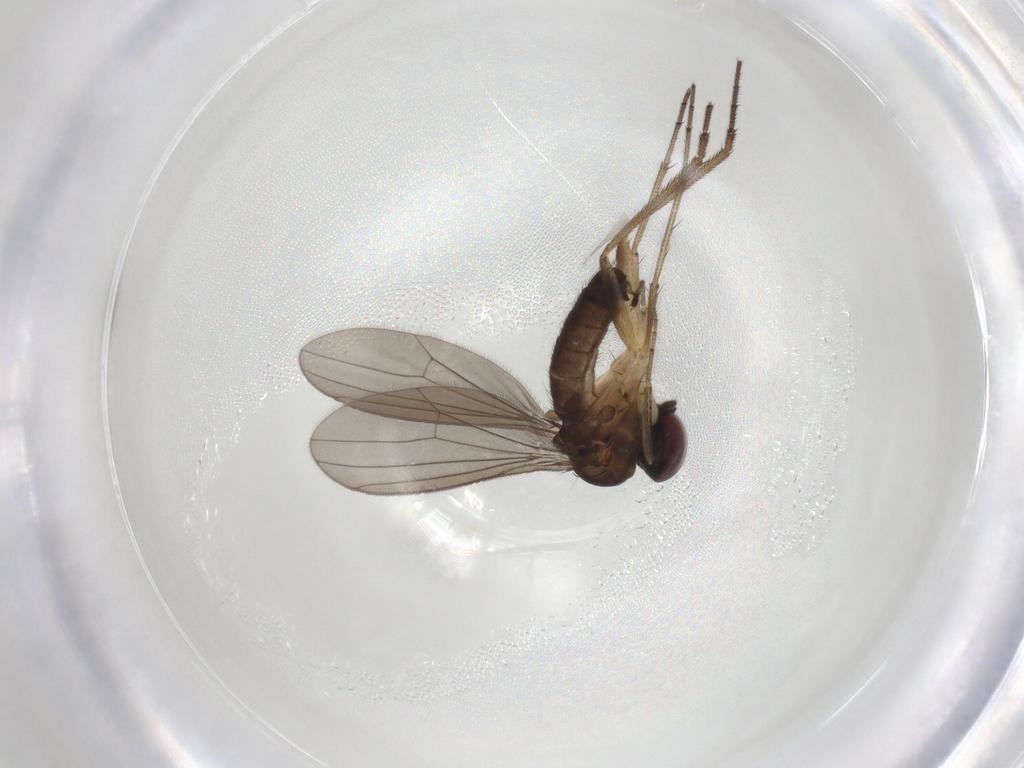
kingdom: Animalia
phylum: Arthropoda
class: Insecta
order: Diptera
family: Dolichopodidae
